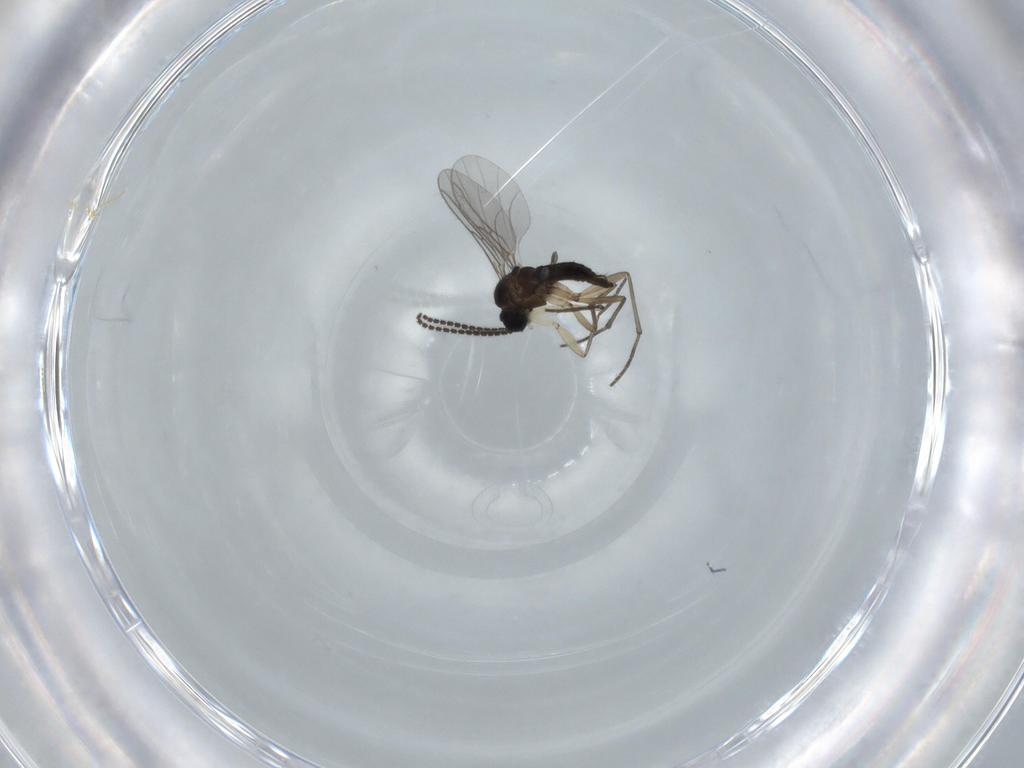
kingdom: Animalia
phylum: Arthropoda
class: Insecta
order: Diptera
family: Sciaridae
